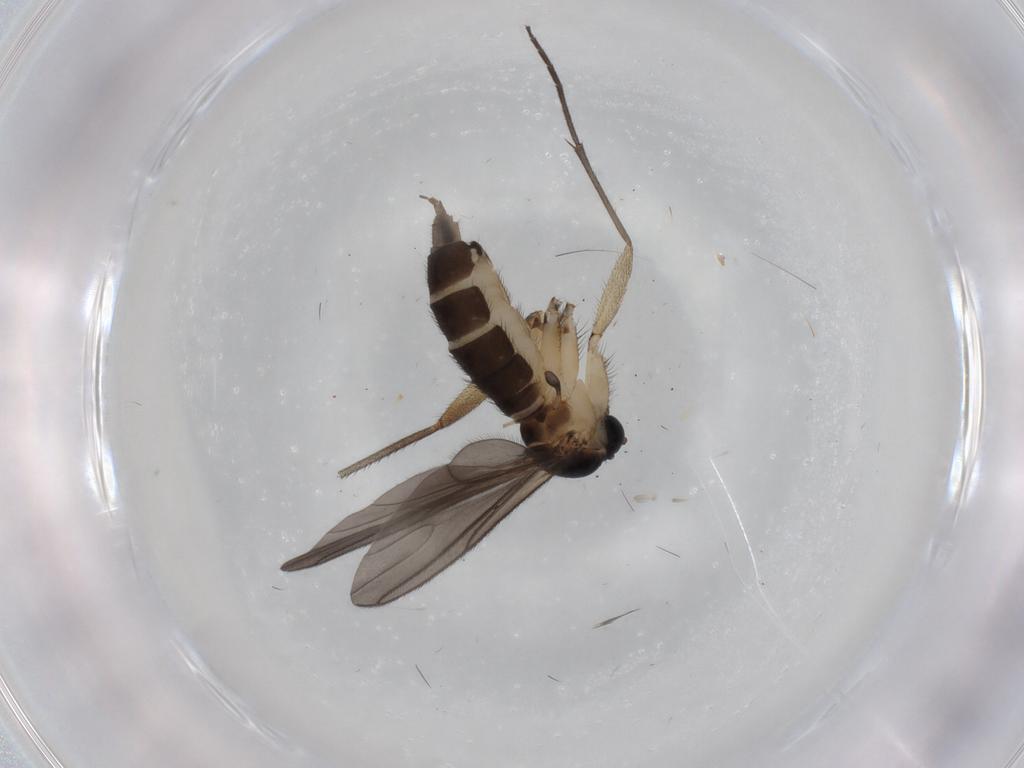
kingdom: Animalia
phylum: Arthropoda
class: Insecta
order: Diptera
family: Sciaridae
